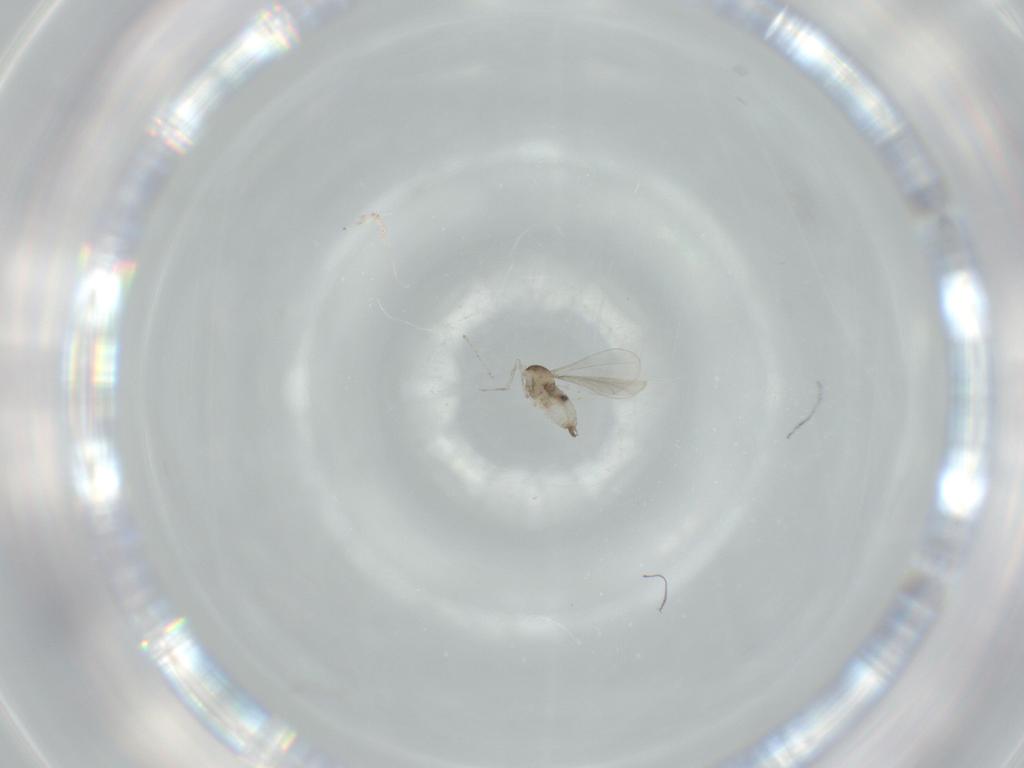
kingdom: Animalia
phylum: Arthropoda
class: Insecta
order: Diptera
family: Cecidomyiidae
